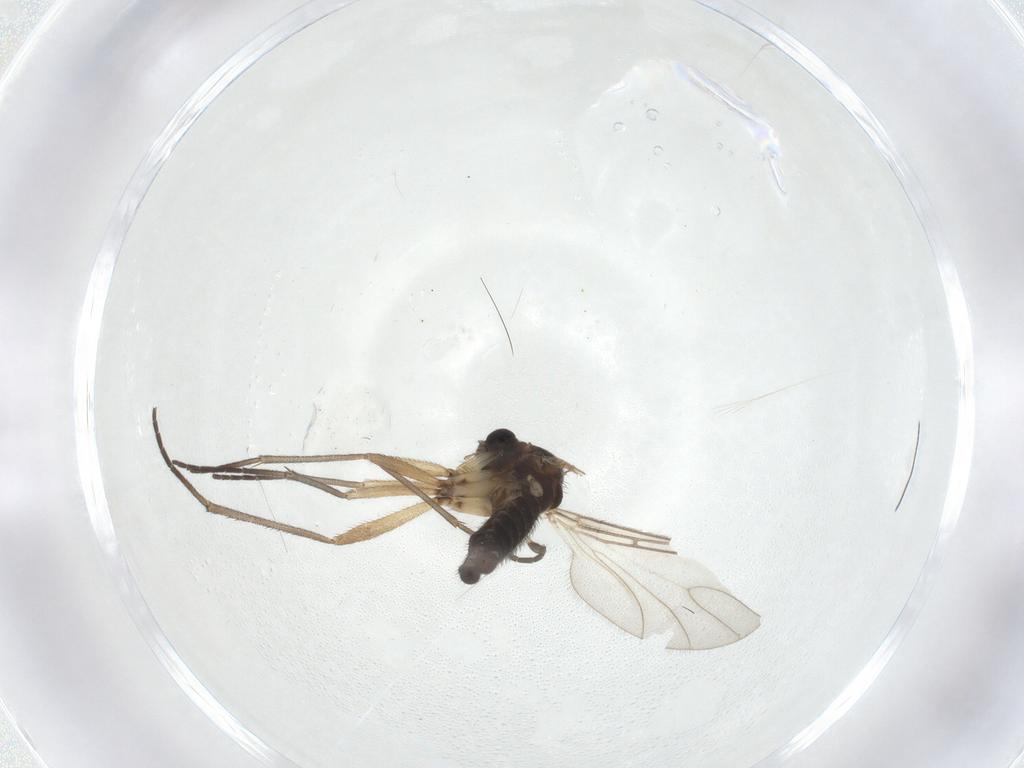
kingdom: Animalia
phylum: Arthropoda
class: Insecta
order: Diptera
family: Sciaridae
